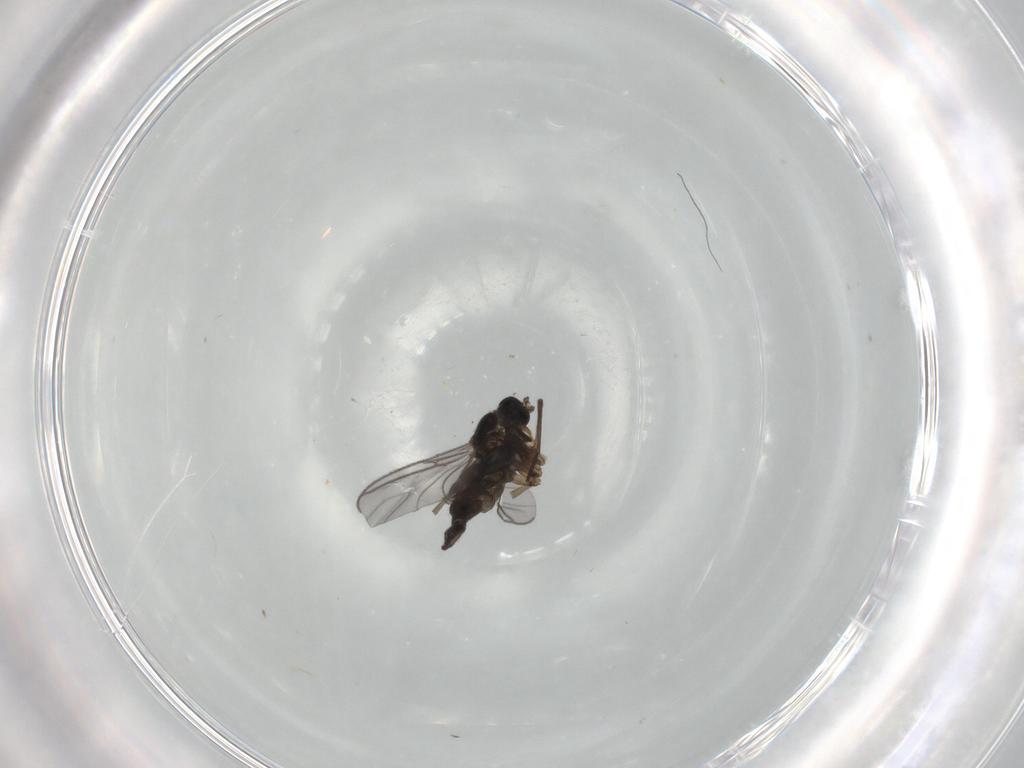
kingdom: Animalia
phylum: Arthropoda
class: Insecta
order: Diptera
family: Sciaridae
